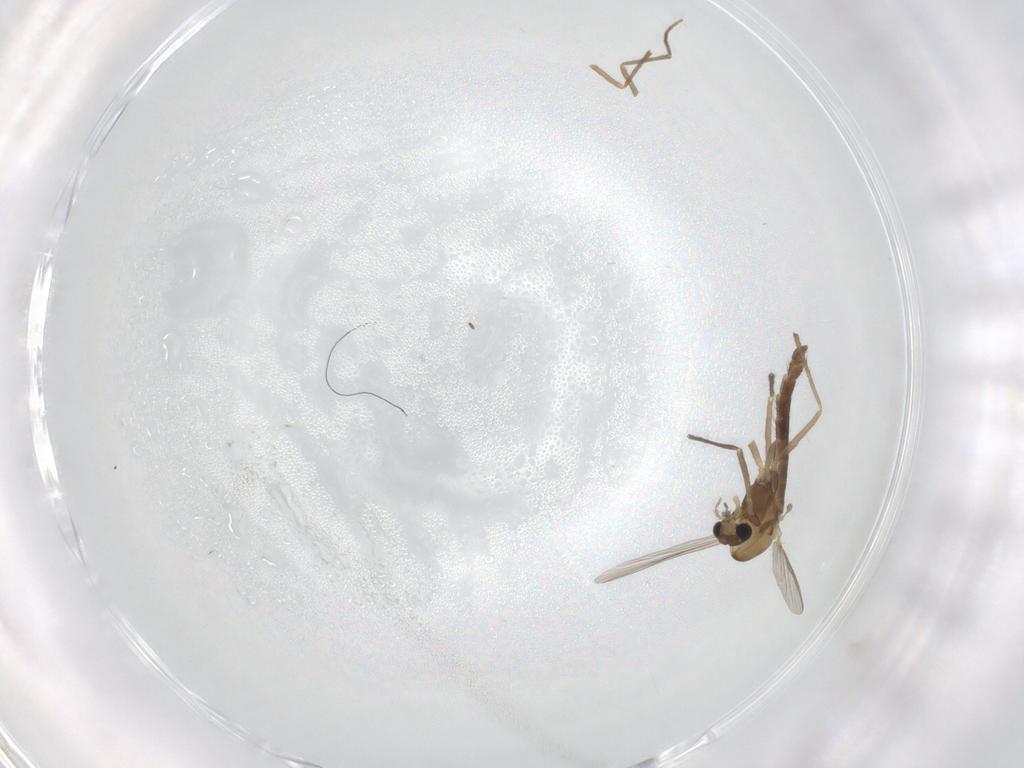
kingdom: Animalia
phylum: Arthropoda
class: Insecta
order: Diptera
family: Chironomidae
